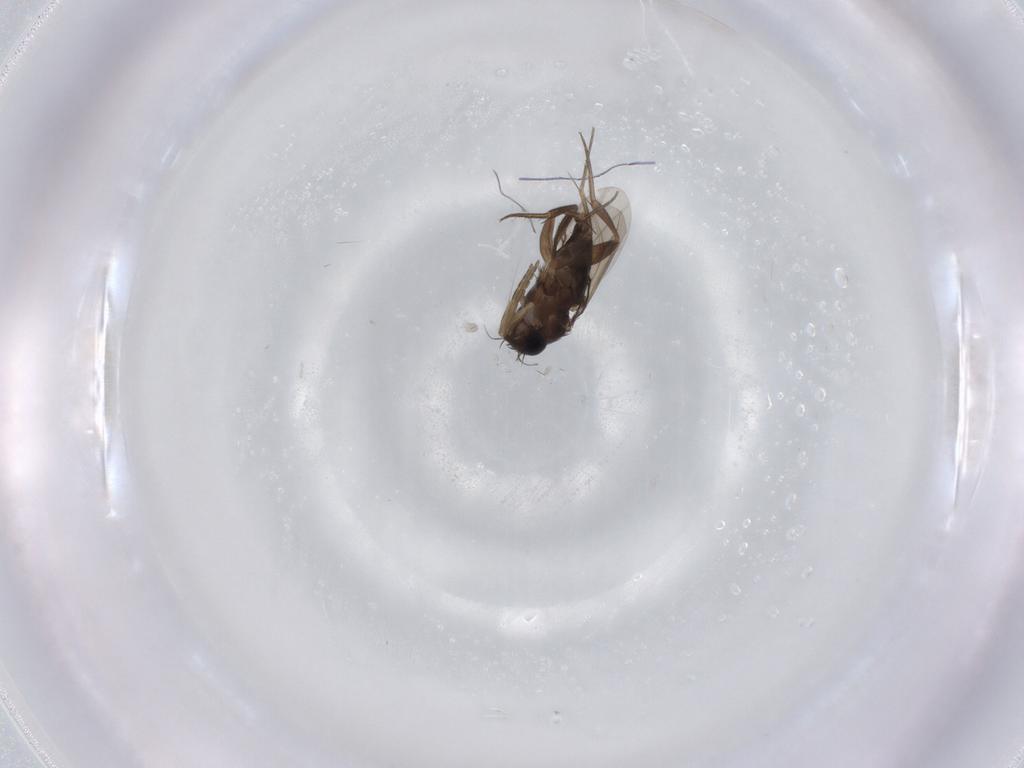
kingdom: Animalia
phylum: Arthropoda
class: Insecta
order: Diptera
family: Phoridae
